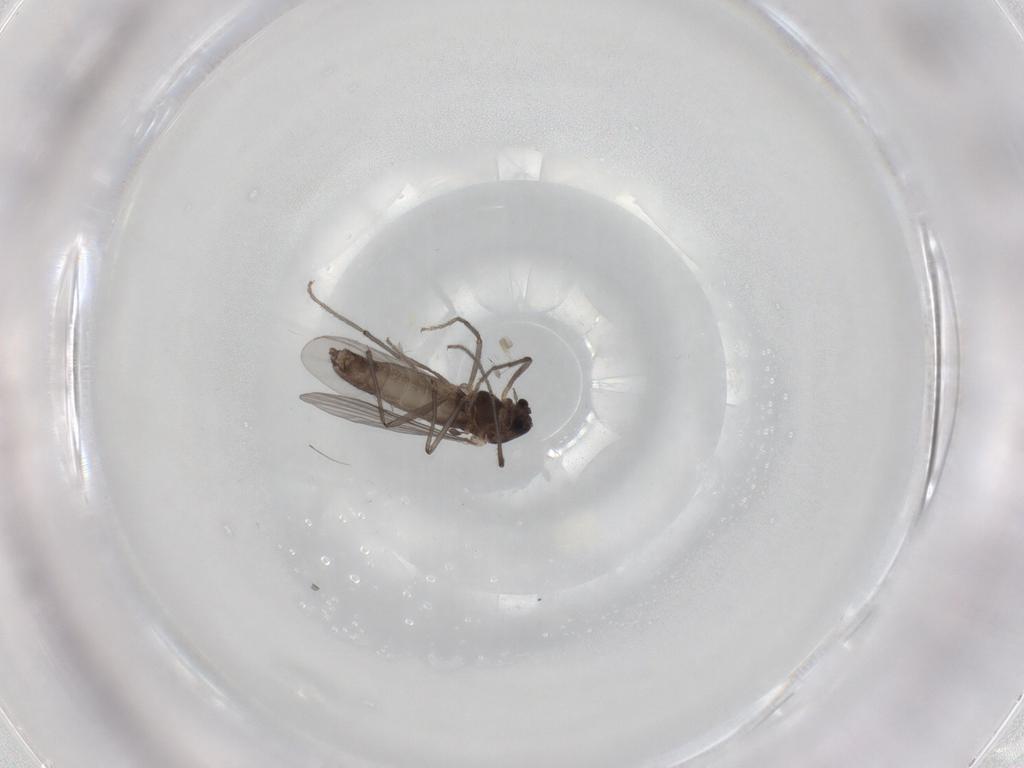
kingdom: Animalia
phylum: Arthropoda
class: Insecta
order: Diptera
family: Chironomidae
